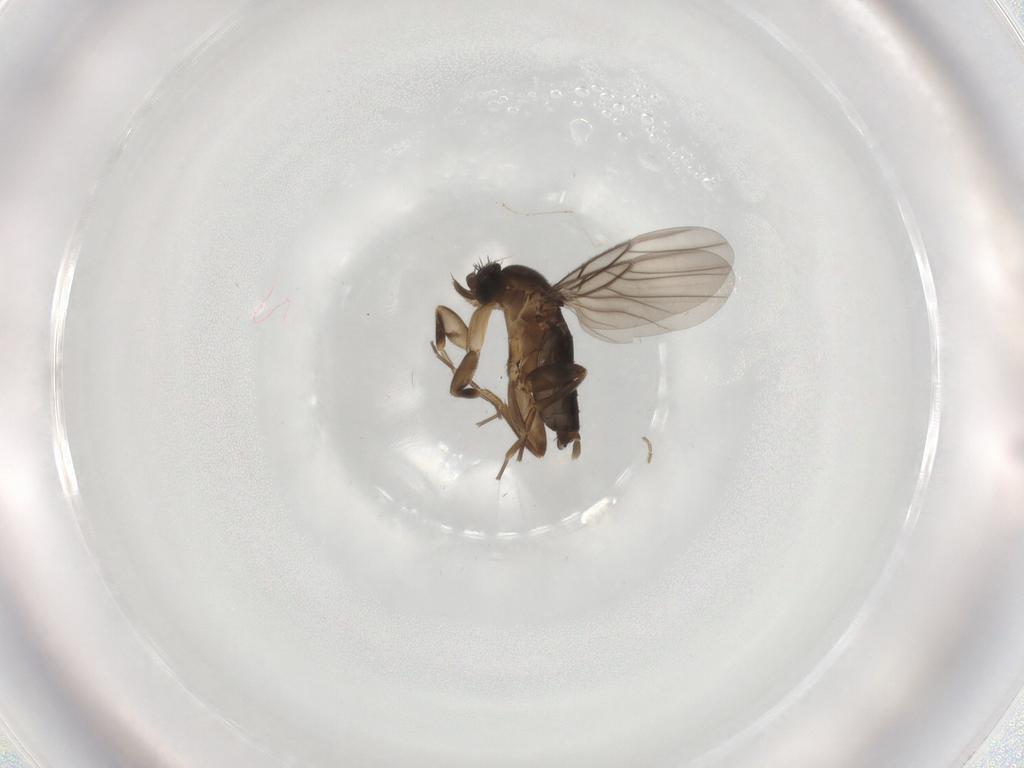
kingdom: Animalia
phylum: Arthropoda
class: Insecta
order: Diptera
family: Phoridae
